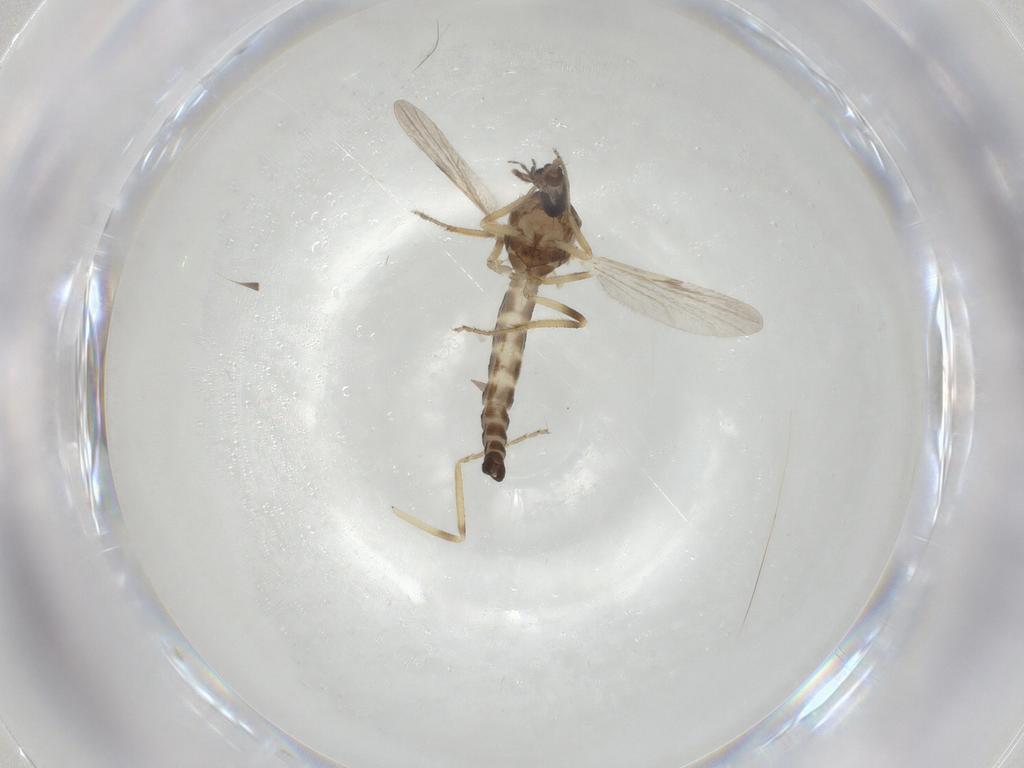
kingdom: Animalia
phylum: Arthropoda
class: Insecta
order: Diptera
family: Ceratopogonidae
